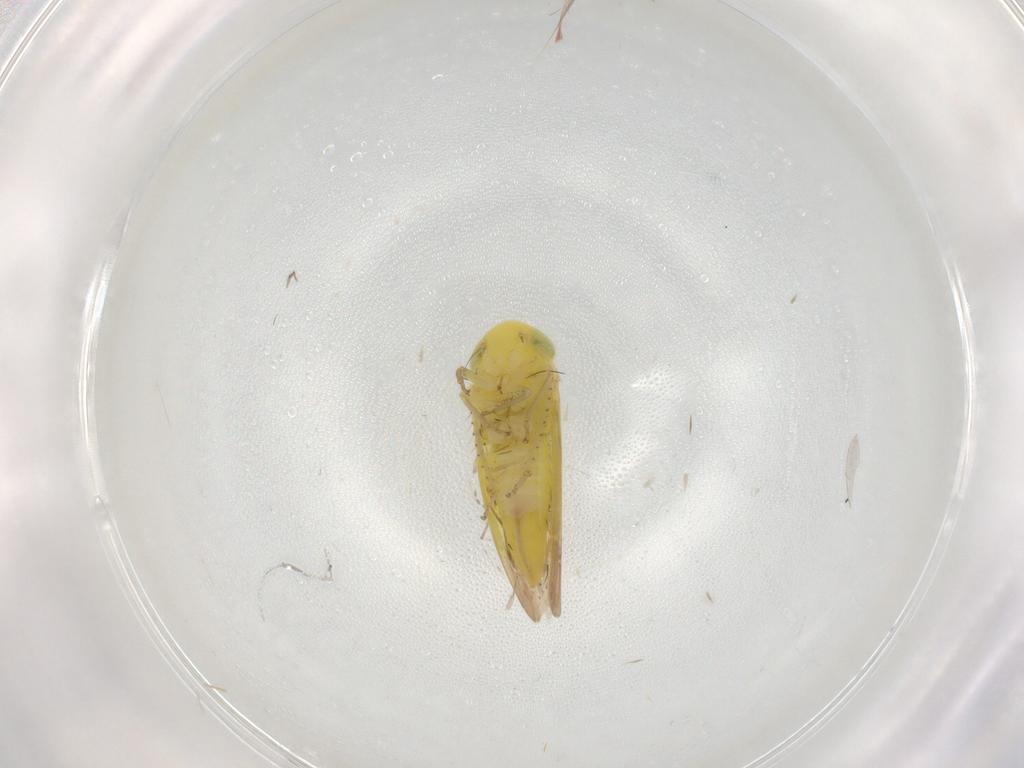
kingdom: Animalia
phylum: Arthropoda
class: Insecta
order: Hemiptera
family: Cicadellidae
